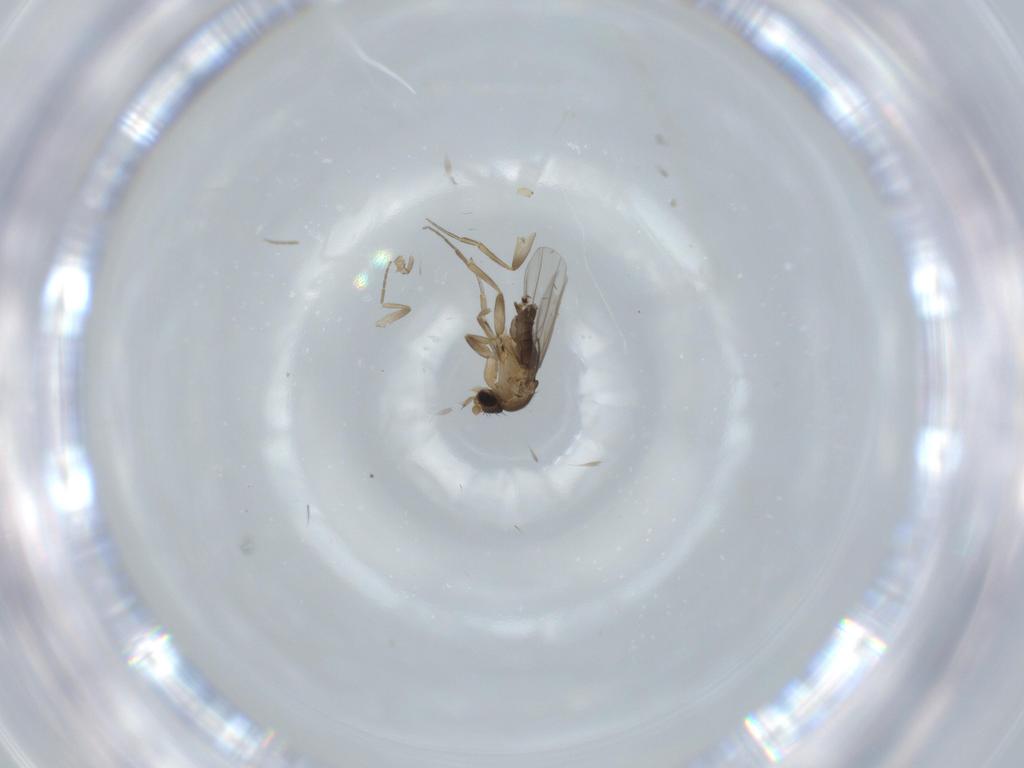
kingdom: Animalia
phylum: Arthropoda
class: Insecta
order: Diptera
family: Phoridae
